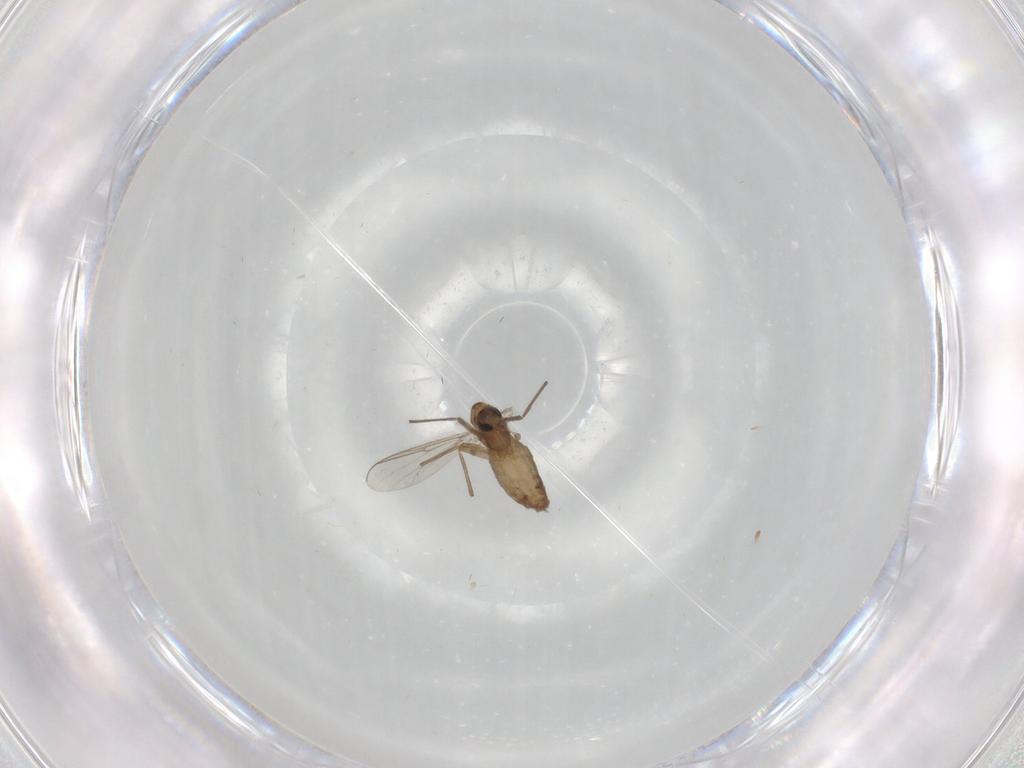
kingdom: Animalia
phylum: Arthropoda
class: Insecta
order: Diptera
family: Chironomidae
